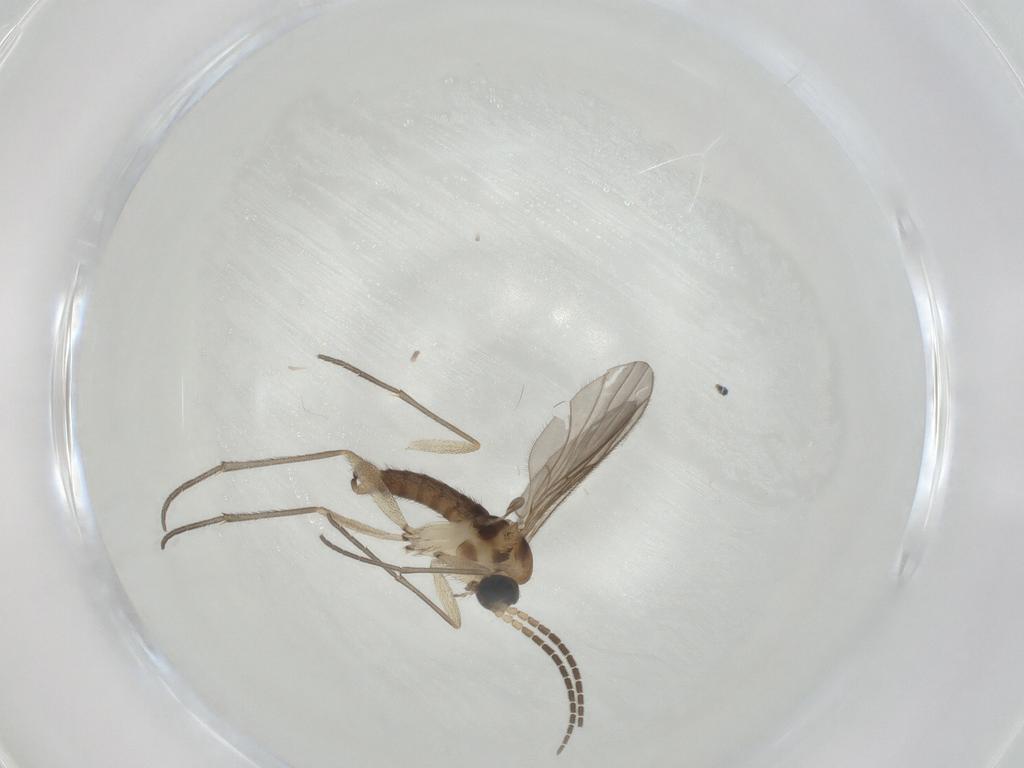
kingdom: Animalia
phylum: Arthropoda
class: Insecta
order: Diptera
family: Sciaridae
